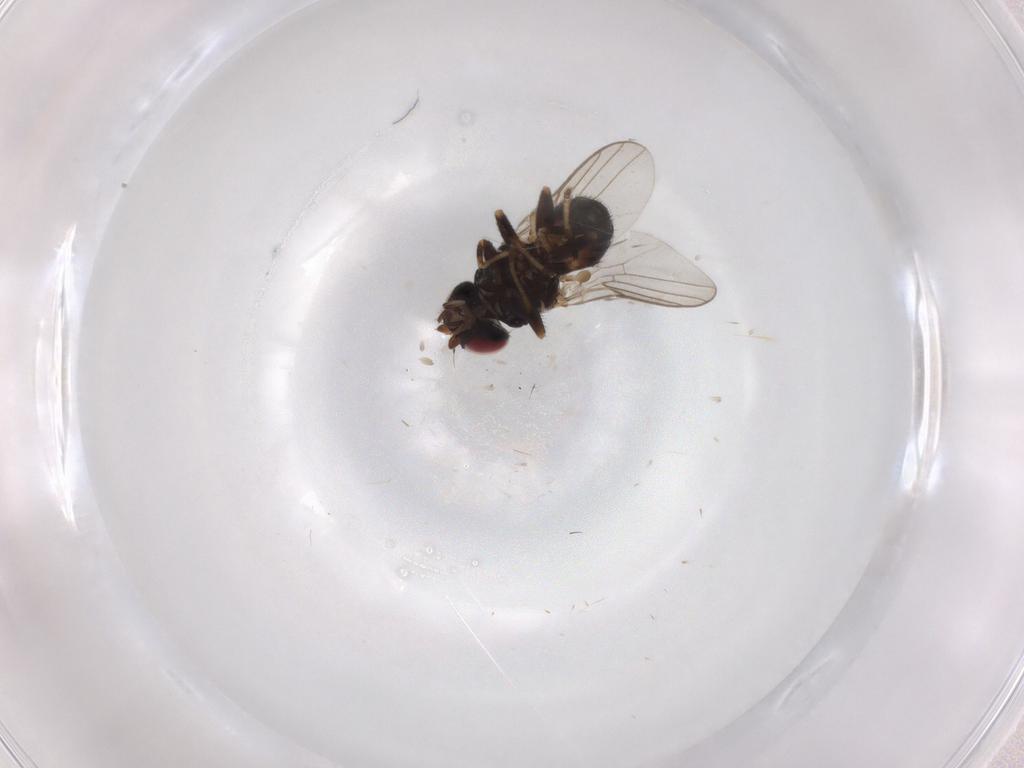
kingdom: Animalia
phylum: Arthropoda
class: Insecta
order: Diptera
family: Chloropidae
